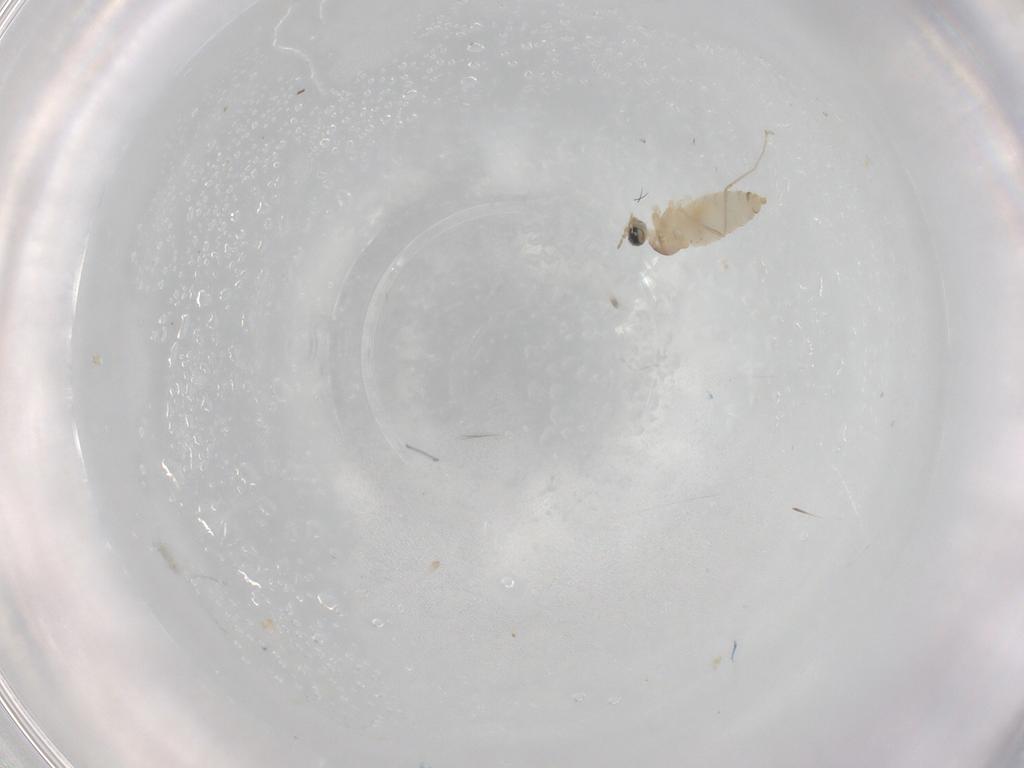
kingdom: Animalia
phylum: Arthropoda
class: Insecta
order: Diptera
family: Cecidomyiidae
